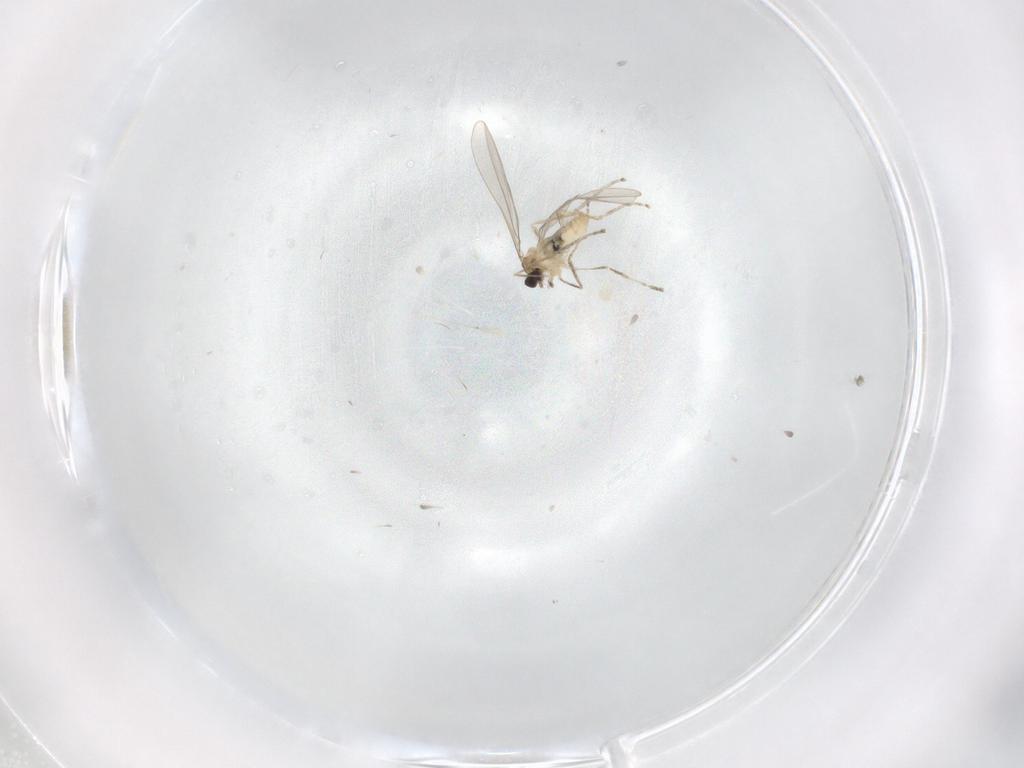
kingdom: Animalia
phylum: Arthropoda
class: Insecta
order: Diptera
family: Cecidomyiidae
